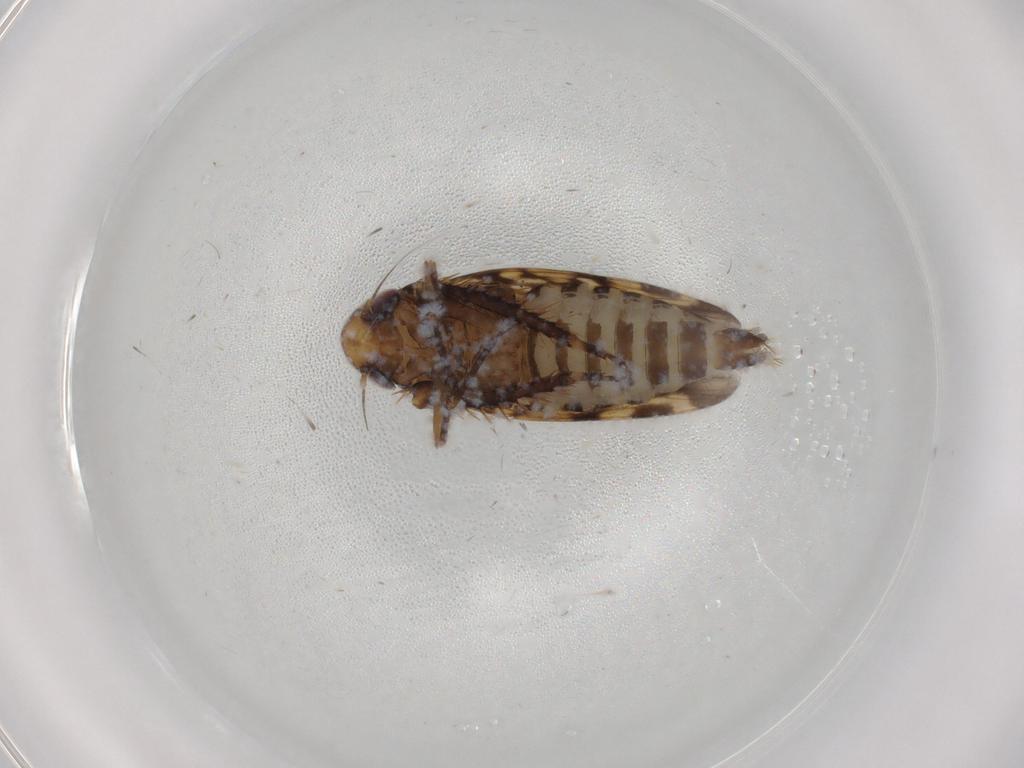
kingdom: Animalia
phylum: Arthropoda
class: Insecta
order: Hemiptera
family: Cicadellidae
